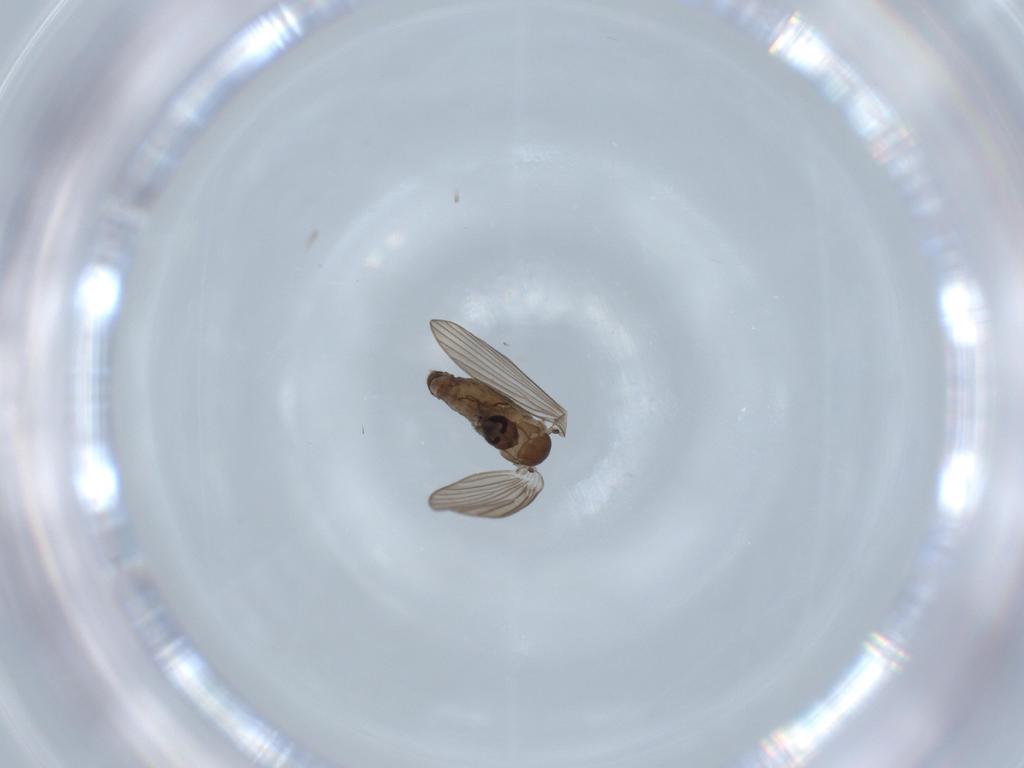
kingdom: Animalia
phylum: Arthropoda
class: Insecta
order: Diptera
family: Psychodidae
